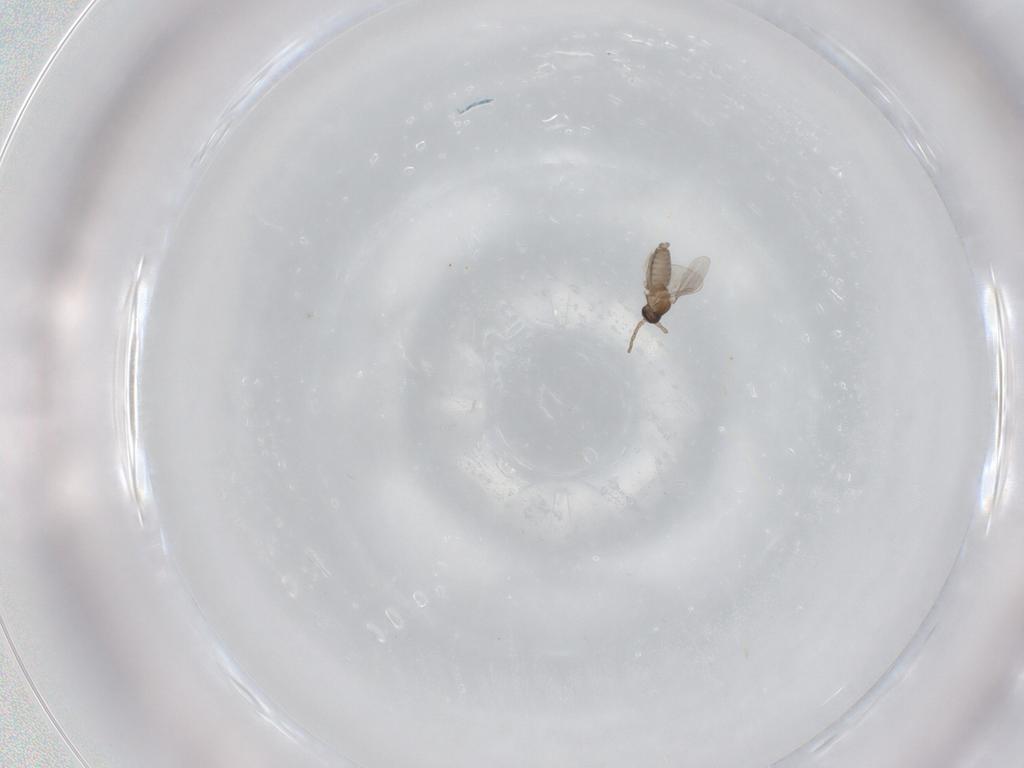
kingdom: Animalia
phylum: Arthropoda
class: Insecta
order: Diptera
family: Cecidomyiidae
